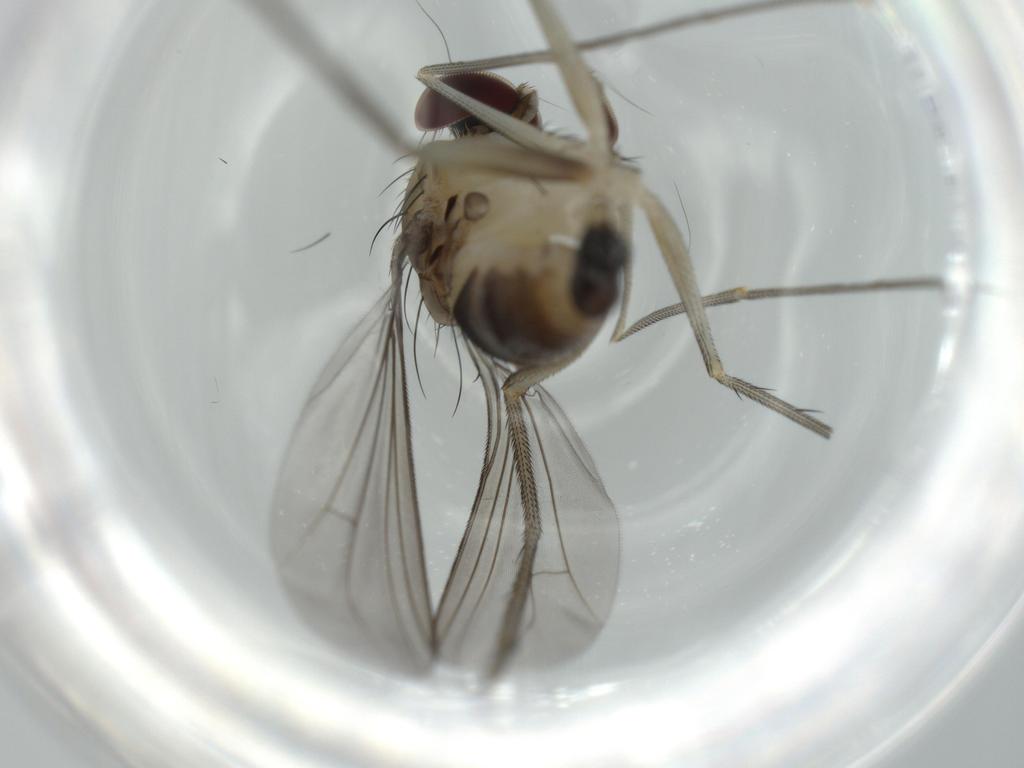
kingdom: Animalia
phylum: Arthropoda
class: Insecta
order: Diptera
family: Dolichopodidae
